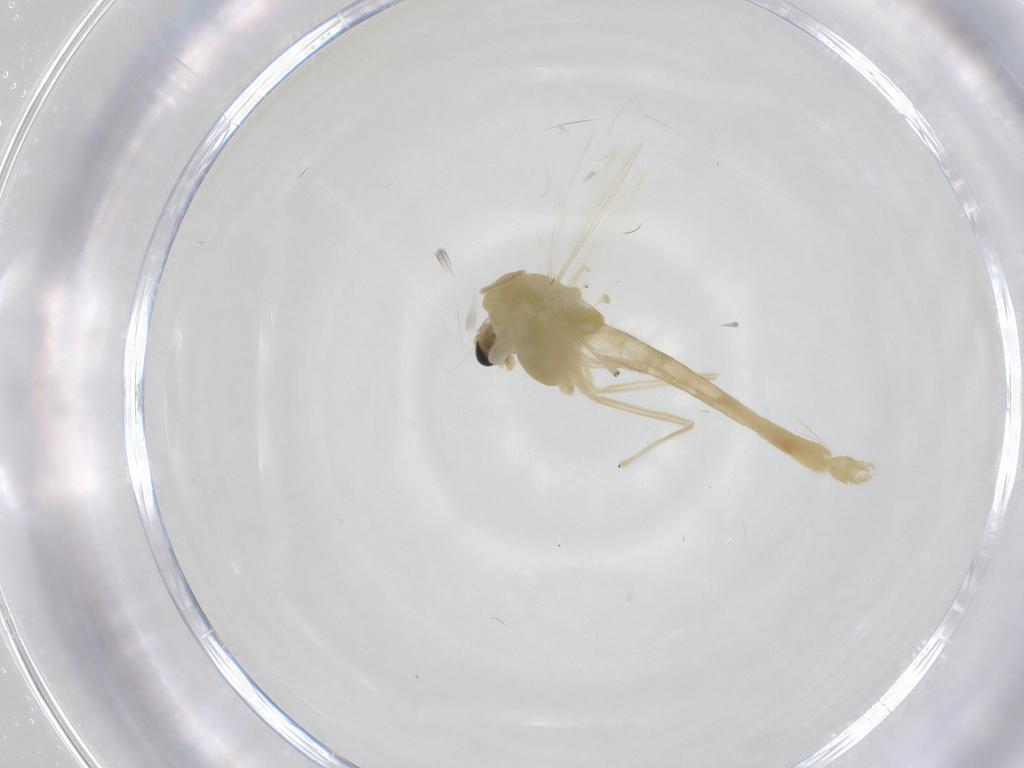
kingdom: Animalia
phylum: Arthropoda
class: Insecta
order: Diptera
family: Chironomidae
